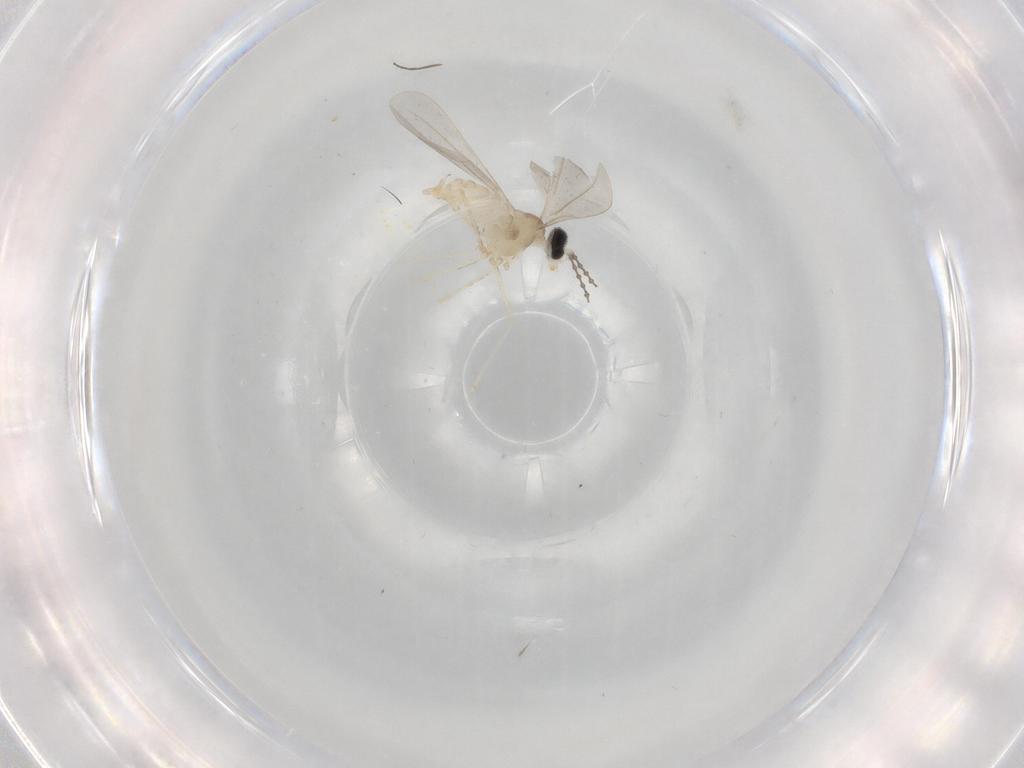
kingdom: Animalia
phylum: Arthropoda
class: Insecta
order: Diptera
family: Cecidomyiidae
